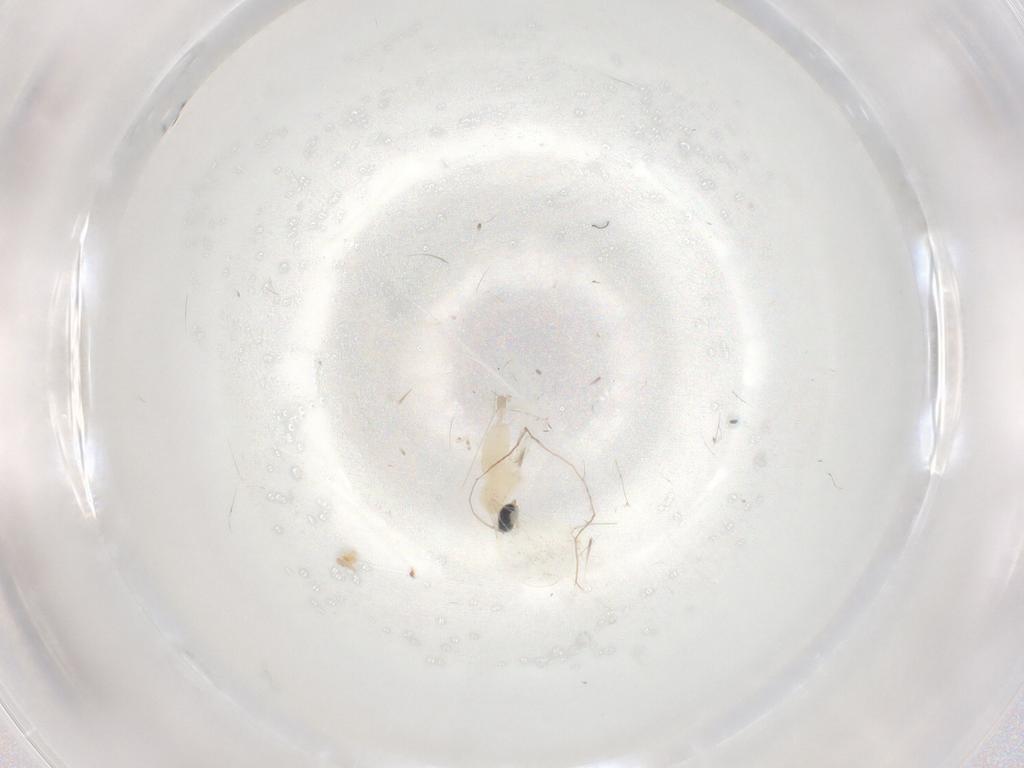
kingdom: Animalia
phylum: Arthropoda
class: Insecta
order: Diptera
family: Cecidomyiidae
